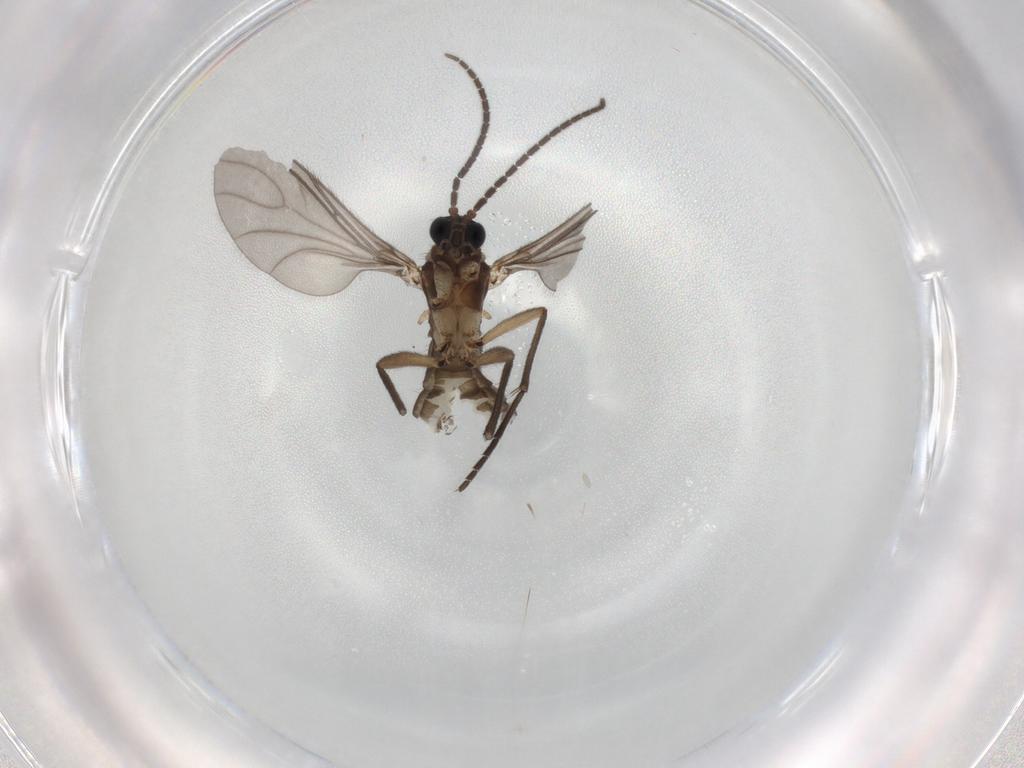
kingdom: Animalia
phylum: Arthropoda
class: Insecta
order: Diptera
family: Sciaridae
